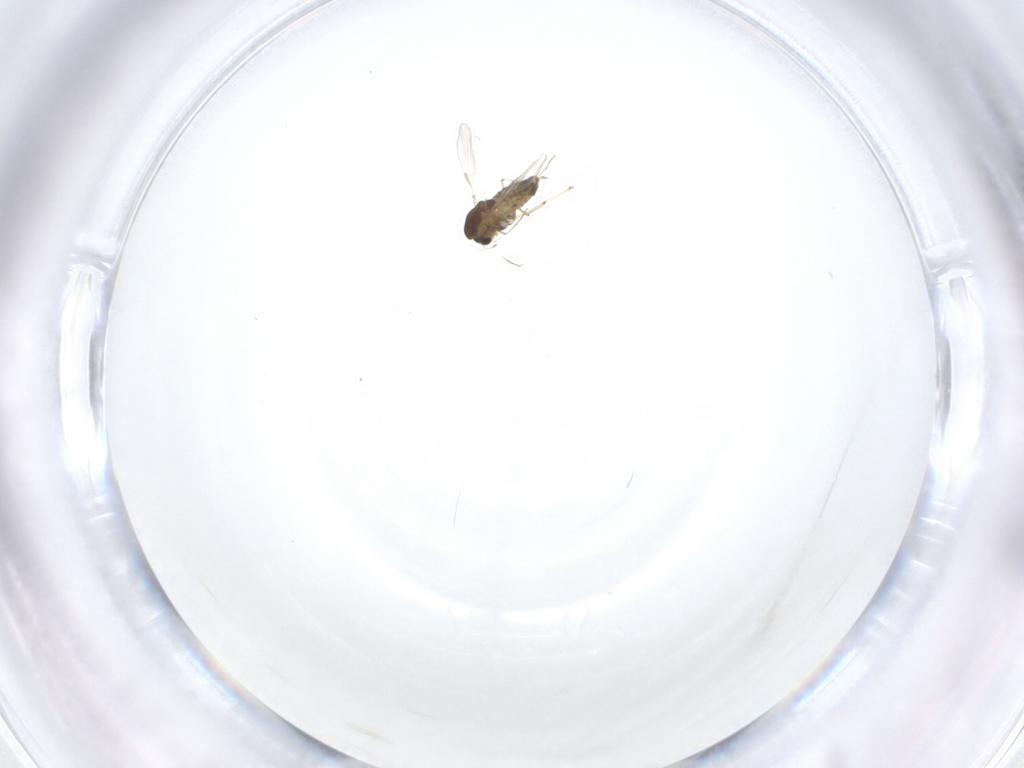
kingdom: Animalia
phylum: Arthropoda
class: Insecta
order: Diptera
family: Chironomidae
